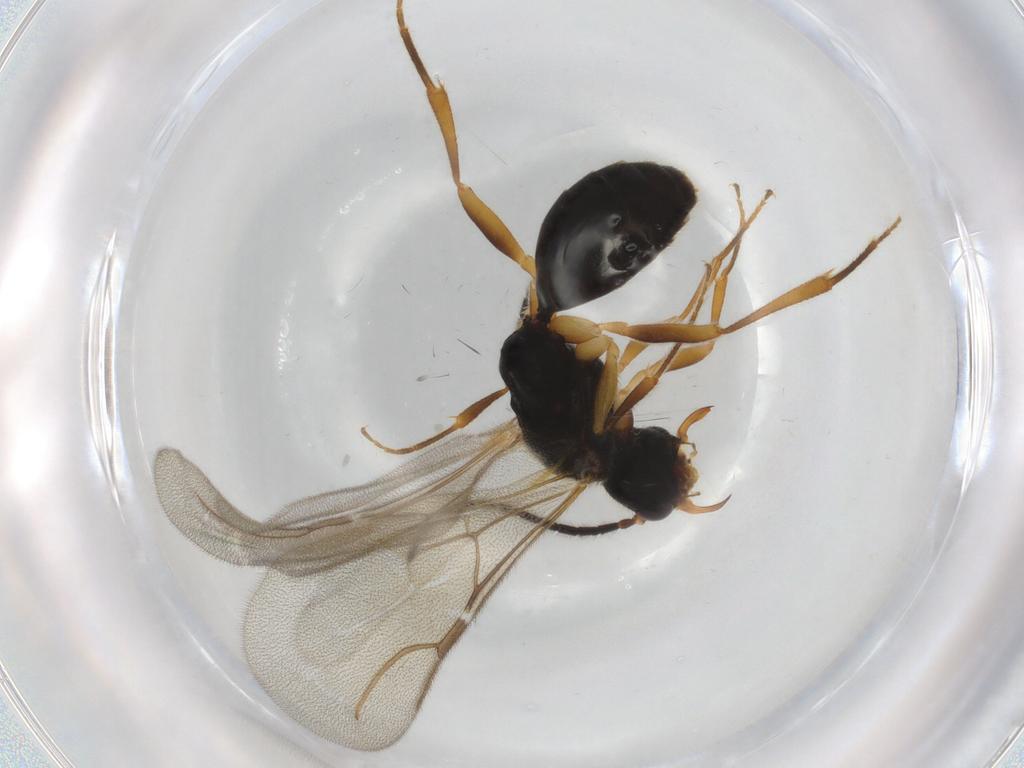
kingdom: Animalia
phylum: Arthropoda
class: Insecta
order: Hymenoptera
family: Bethylidae
